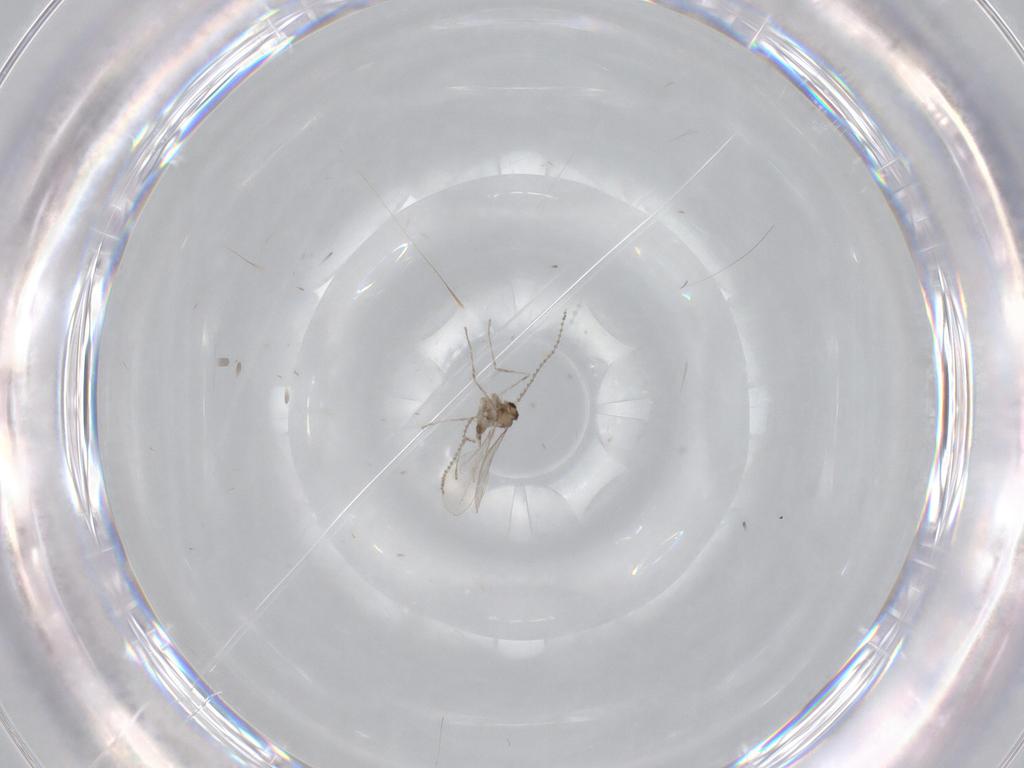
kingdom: Animalia
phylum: Arthropoda
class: Insecta
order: Diptera
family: Cecidomyiidae
